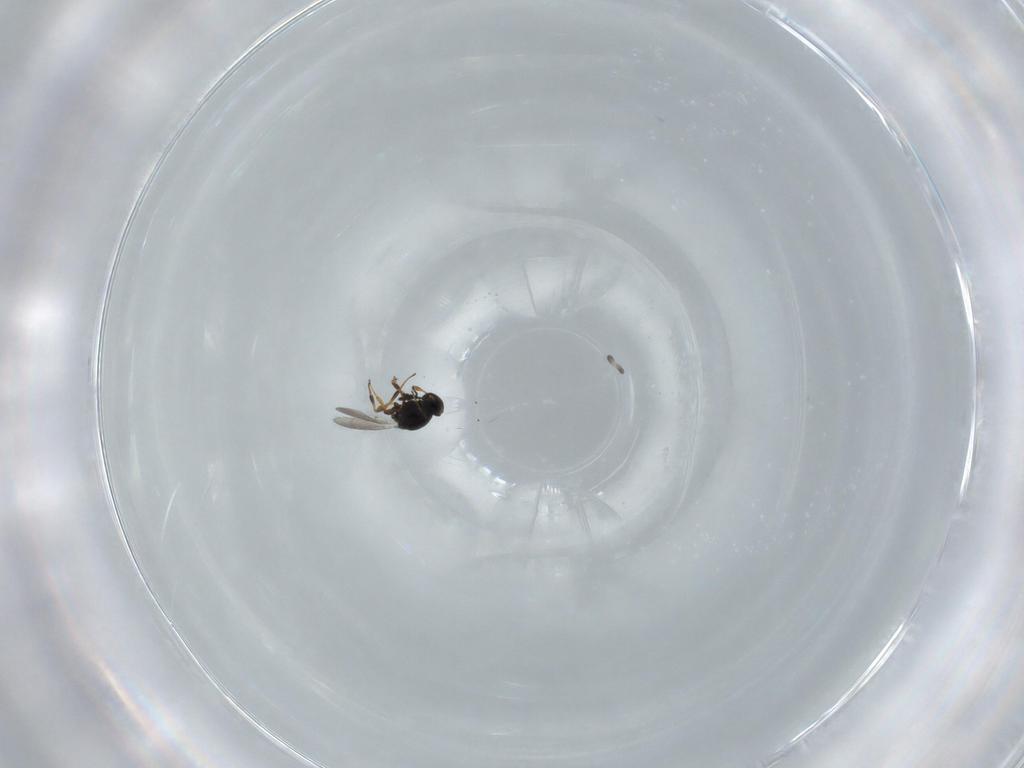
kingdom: Animalia
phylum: Arthropoda
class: Insecta
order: Hymenoptera
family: Platygastridae
